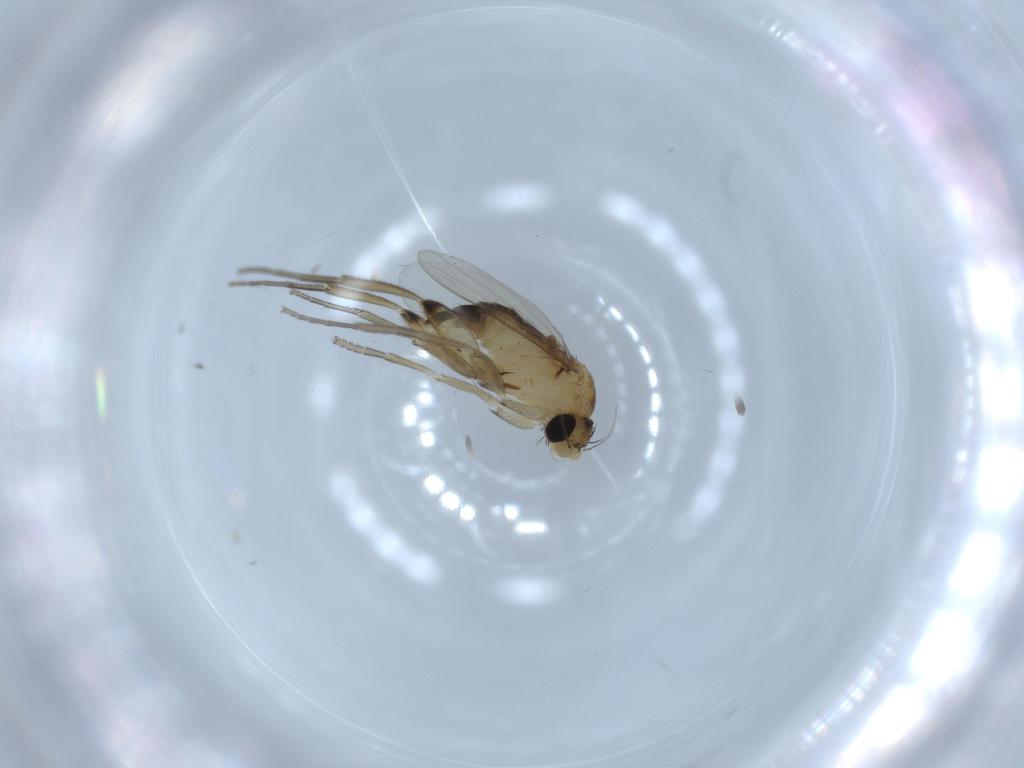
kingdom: Animalia
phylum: Arthropoda
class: Insecta
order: Diptera
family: Phoridae
